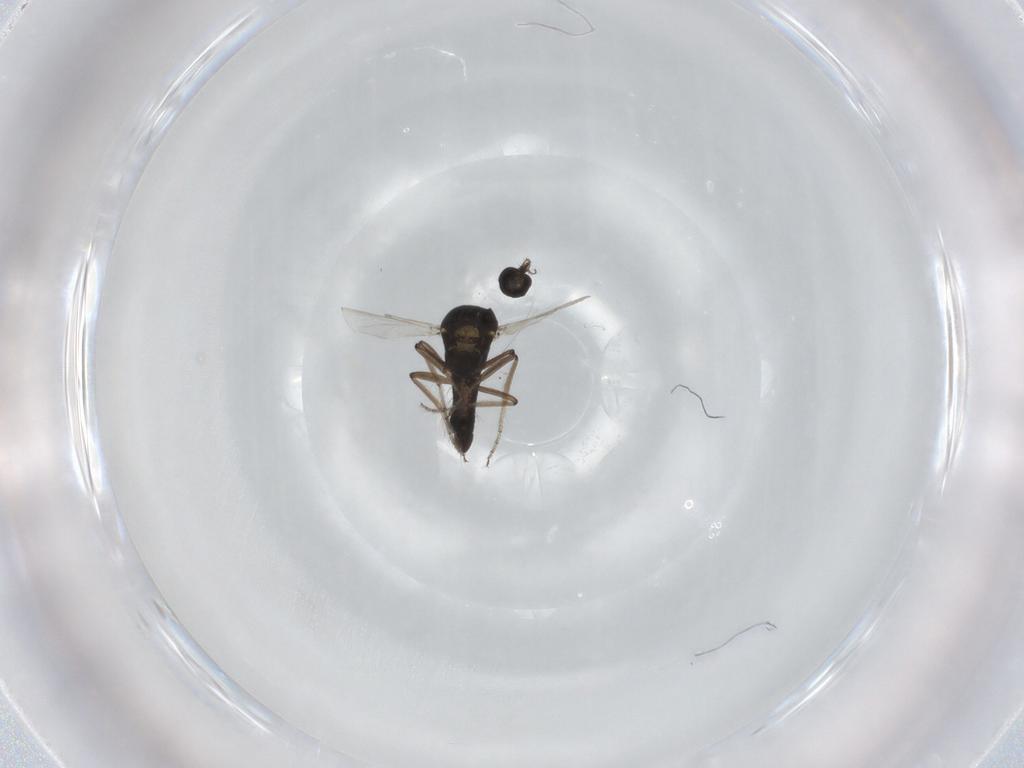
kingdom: Animalia
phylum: Arthropoda
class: Insecta
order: Diptera
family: Ceratopogonidae
